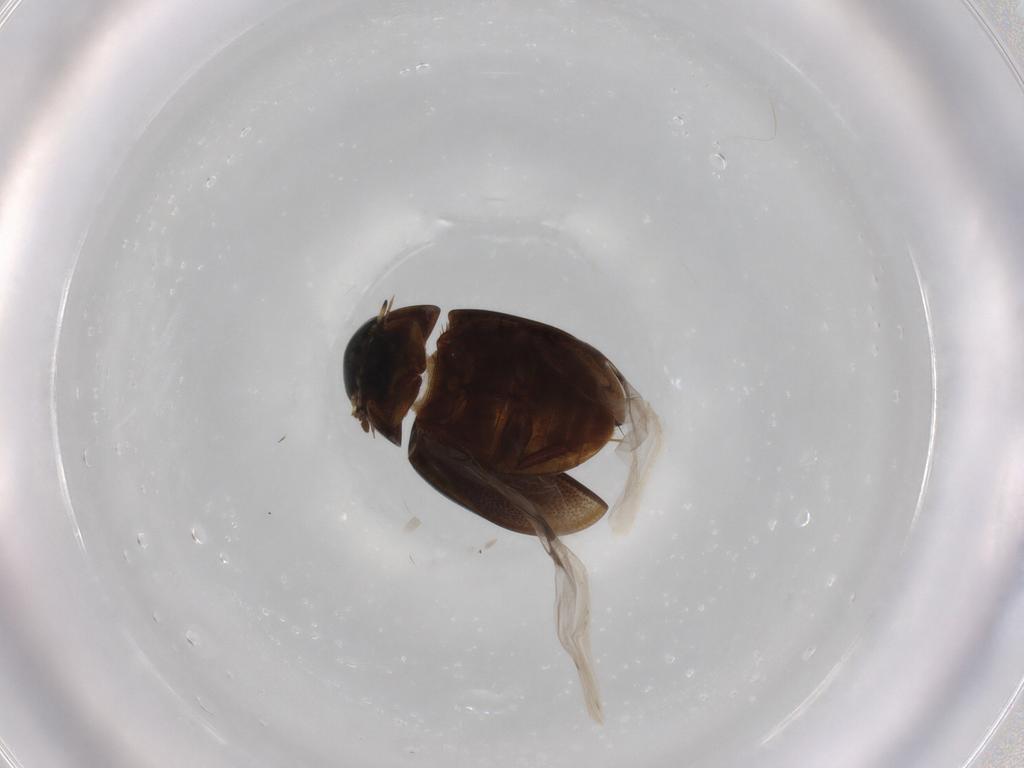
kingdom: Animalia
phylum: Arthropoda
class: Insecta
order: Coleoptera
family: Hydrophilidae
